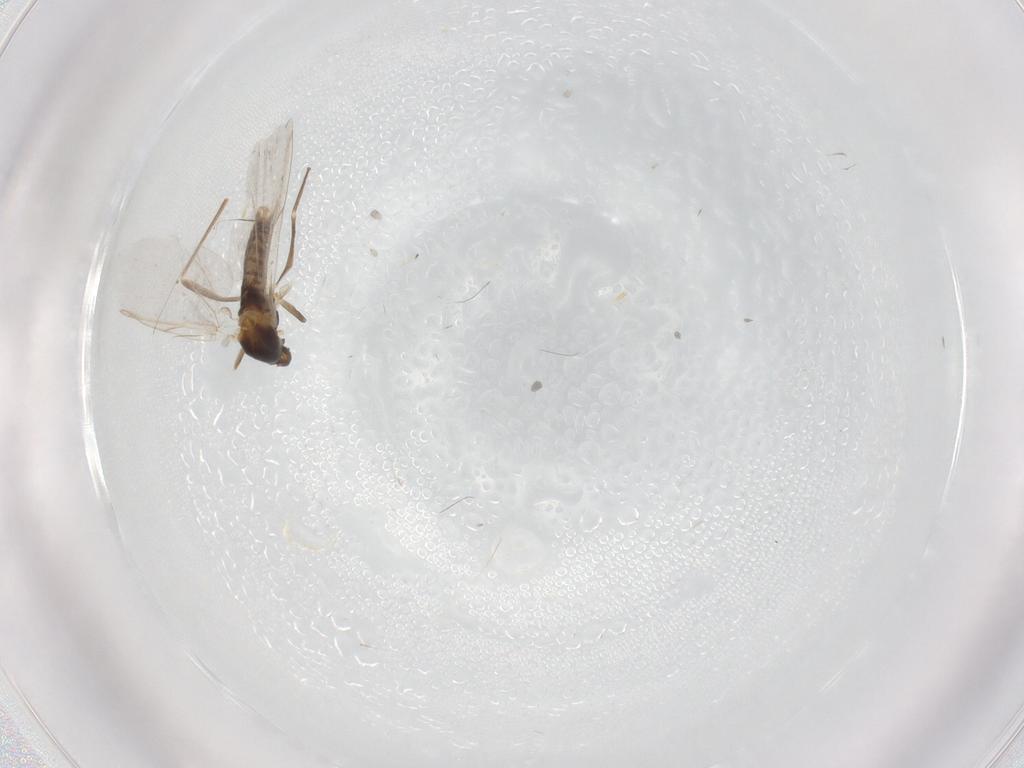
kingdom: Animalia
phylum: Arthropoda
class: Insecta
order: Diptera
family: Cecidomyiidae
